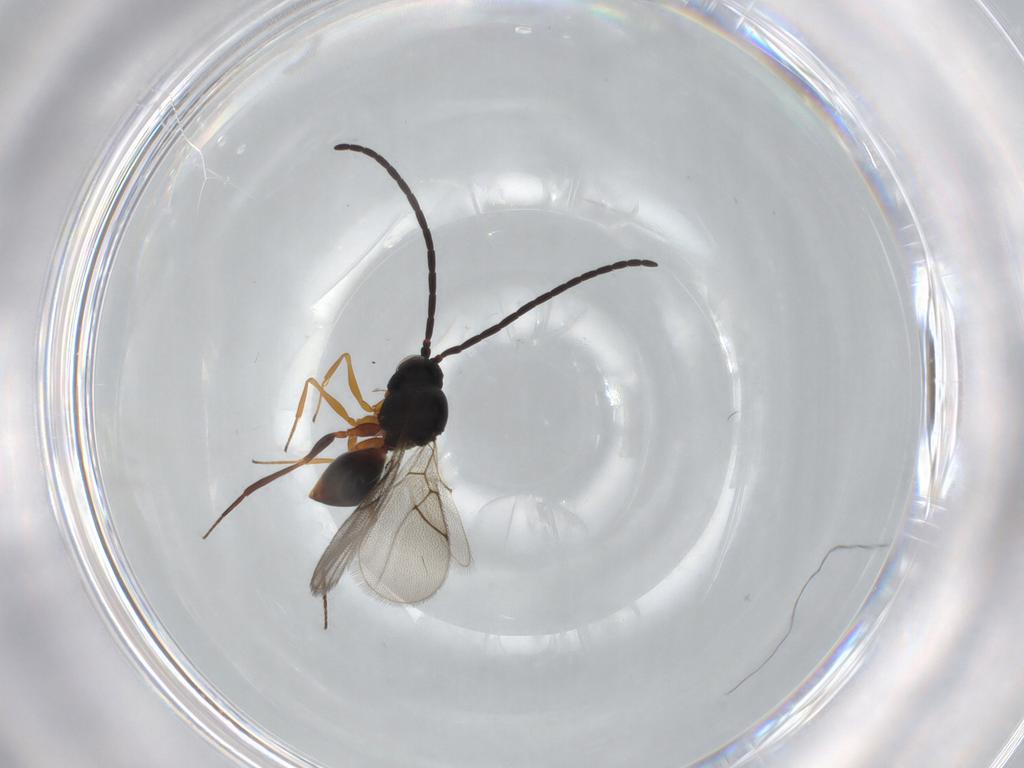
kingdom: Animalia
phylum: Arthropoda
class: Insecta
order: Hymenoptera
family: Figitidae
